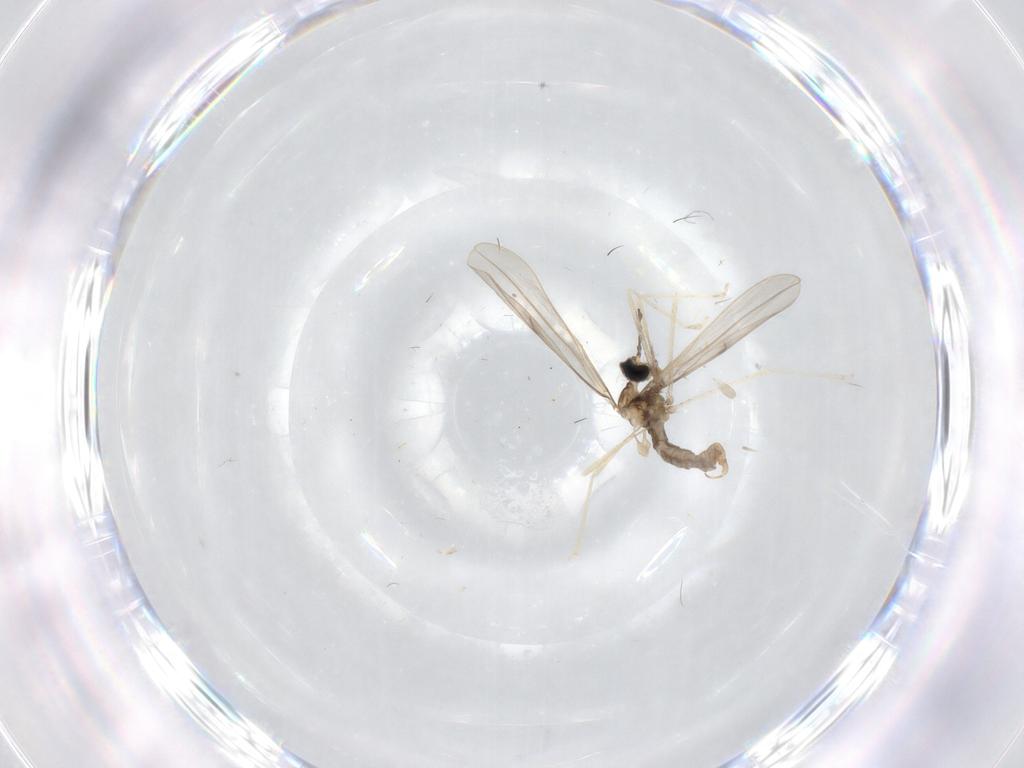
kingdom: Animalia
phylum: Arthropoda
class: Insecta
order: Diptera
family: Cecidomyiidae
